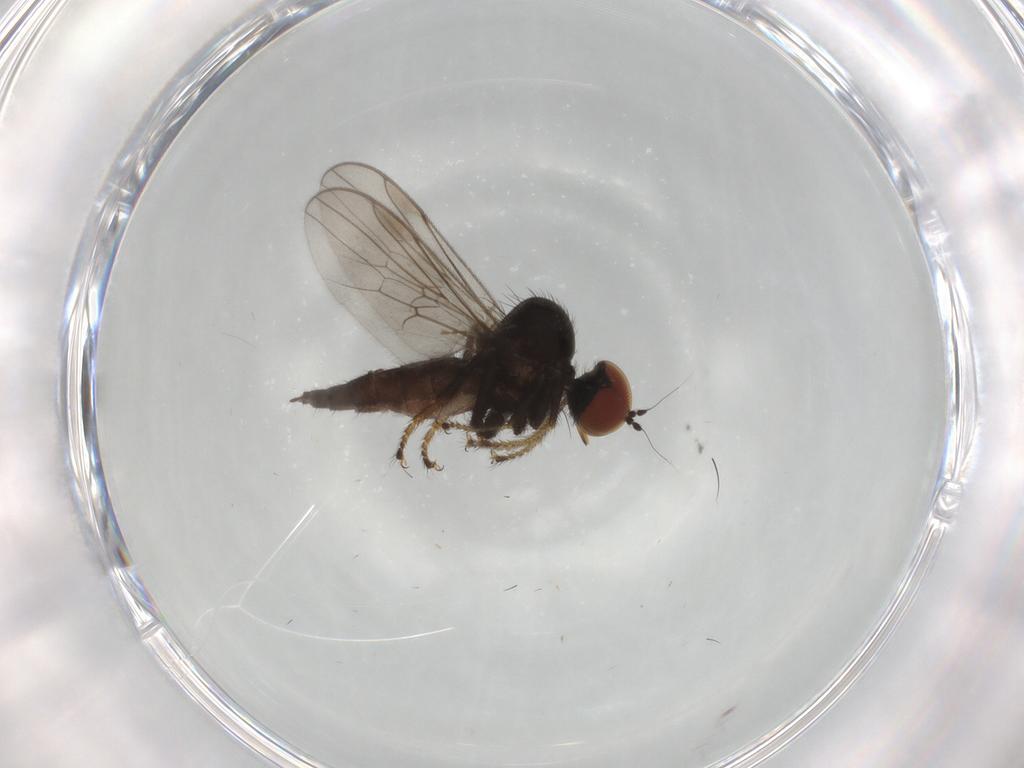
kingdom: Animalia
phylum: Arthropoda
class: Insecta
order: Diptera
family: Hybotidae
